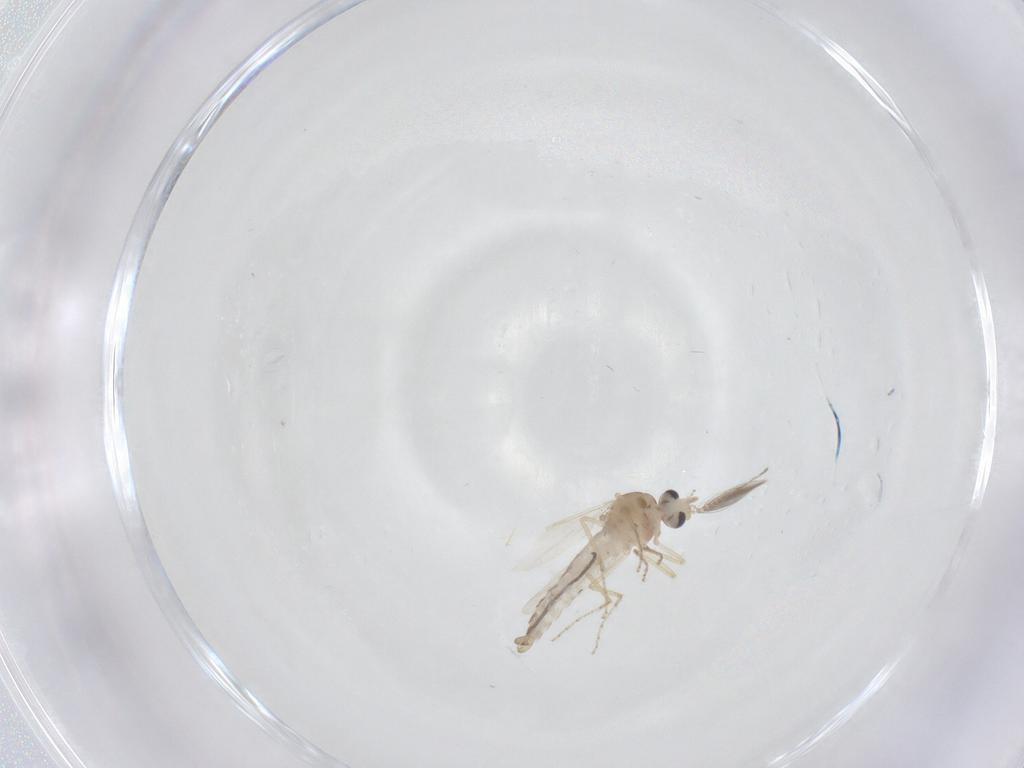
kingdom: Animalia
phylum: Arthropoda
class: Insecta
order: Diptera
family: Ceratopogonidae
